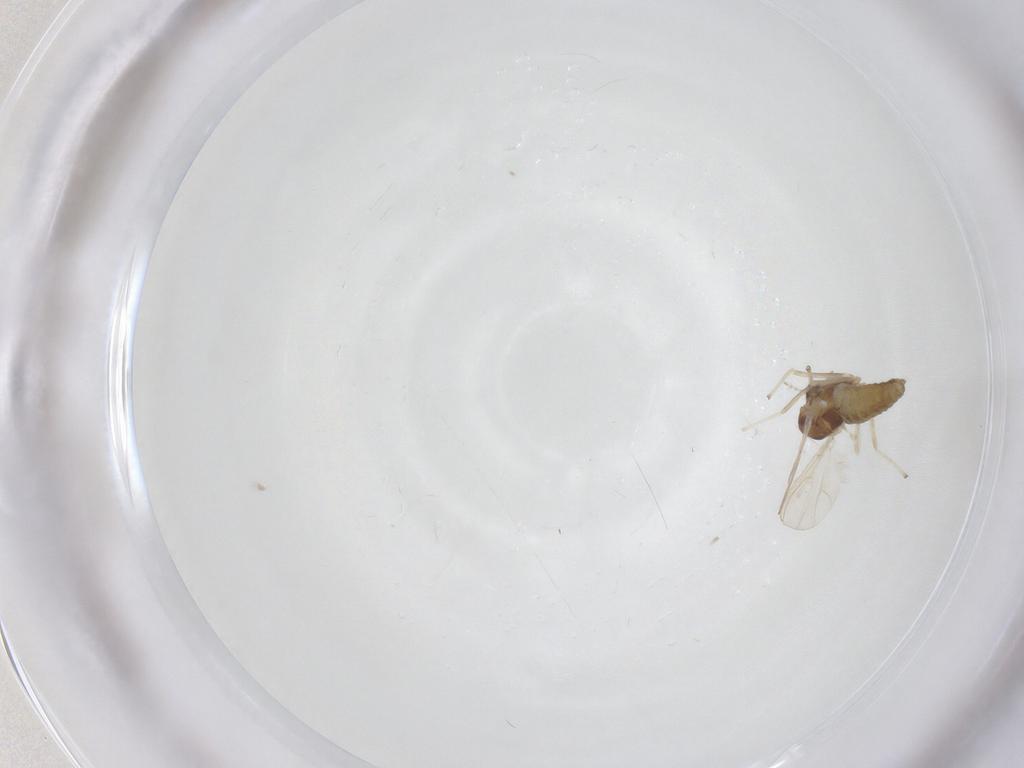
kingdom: Animalia
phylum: Arthropoda
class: Insecta
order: Diptera
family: Chironomidae
